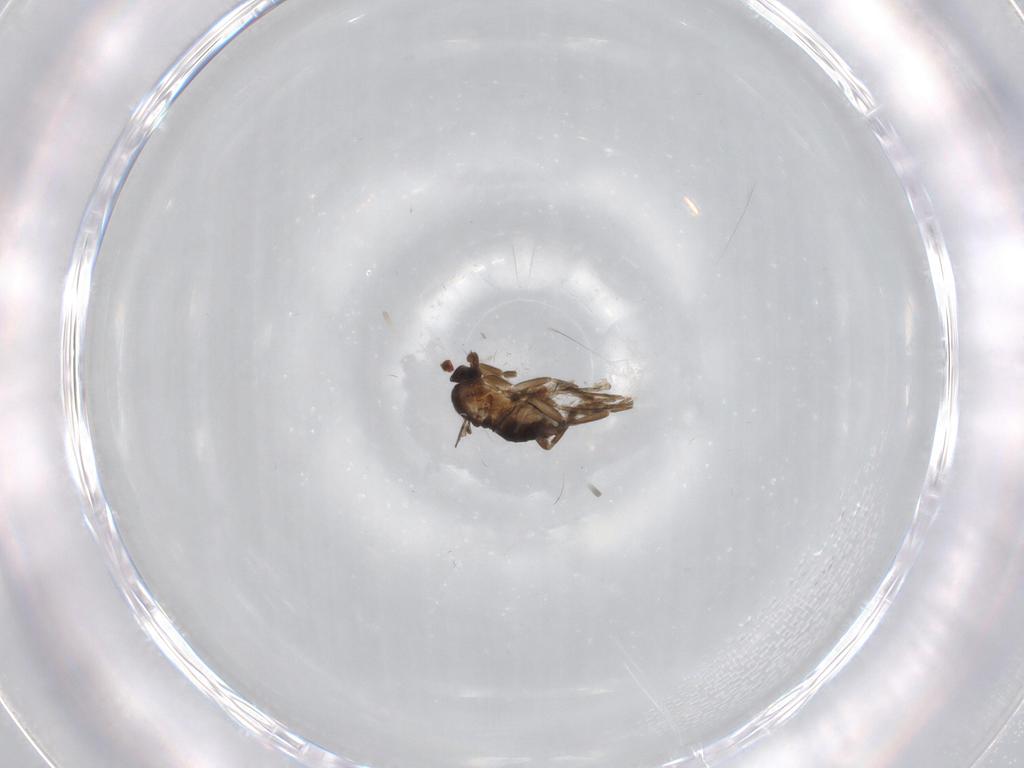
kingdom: Animalia
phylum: Arthropoda
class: Insecta
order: Diptera
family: Phoridae
